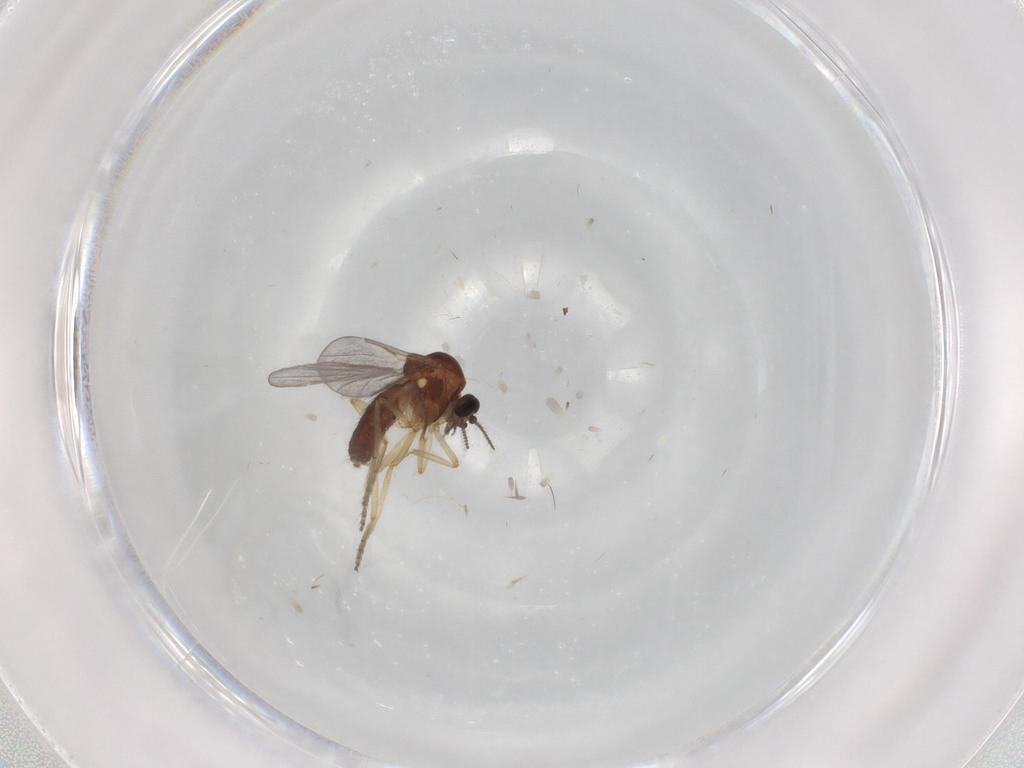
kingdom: Animalia
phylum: Arthropoda
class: Insecta
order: Diptera
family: Ceratopogonidae
